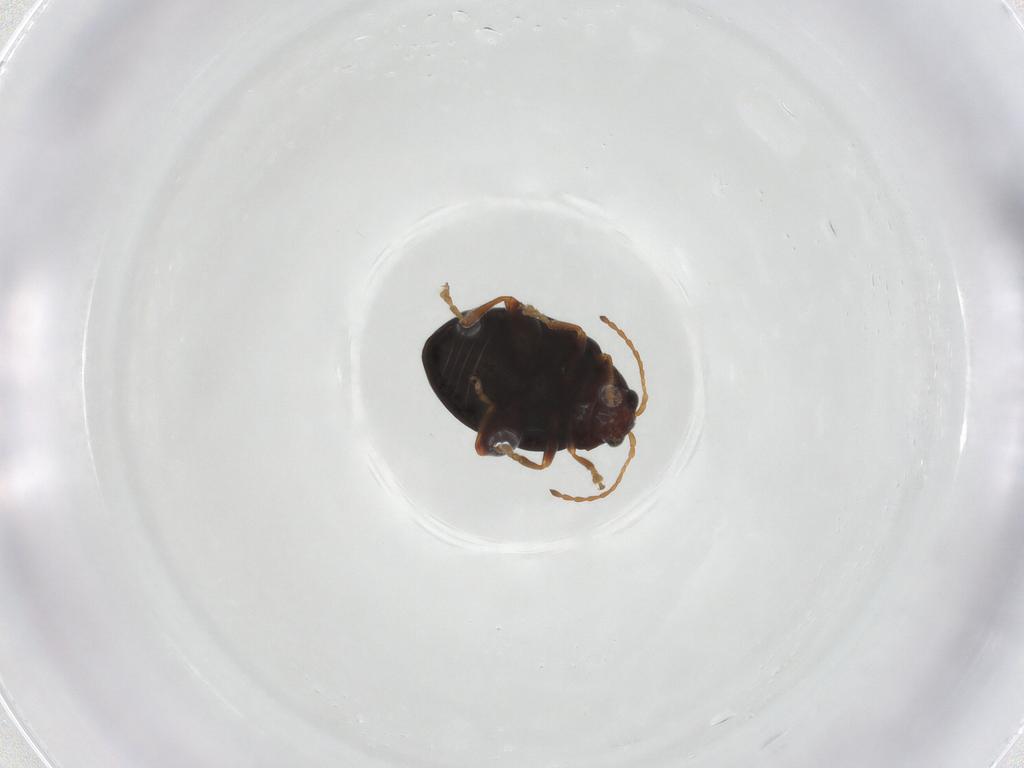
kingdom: Animalia
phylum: Arthropoda
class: Insecta
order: Coleoptera
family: Chrysomelidae
